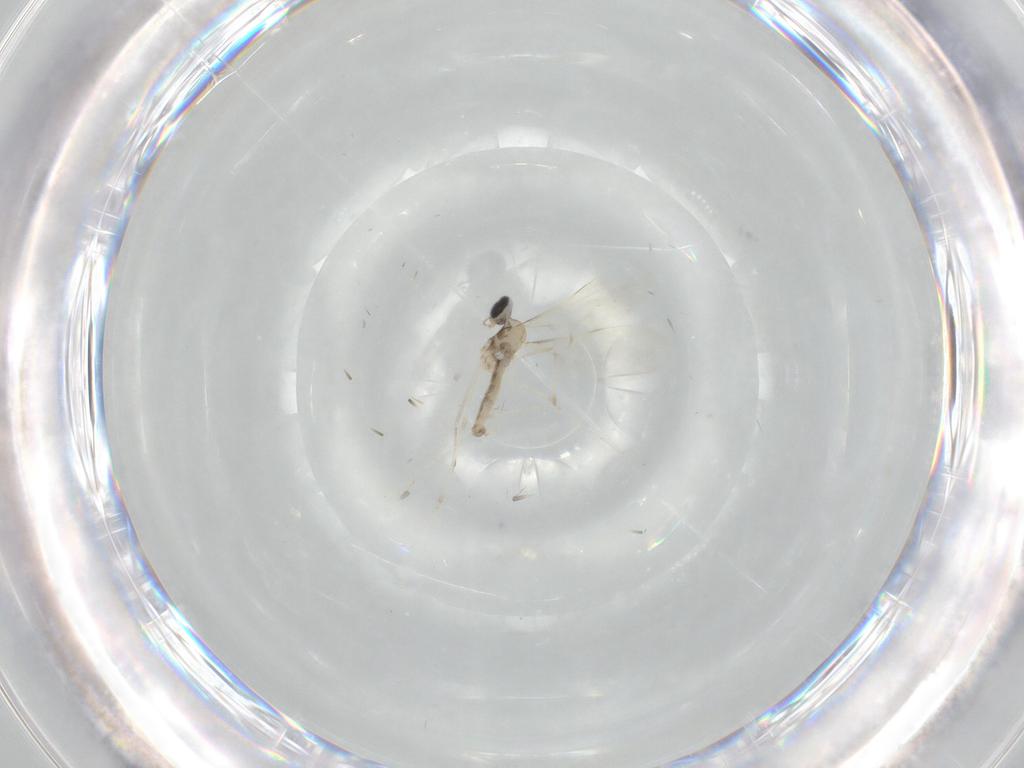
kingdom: Animalia
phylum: Arthropoda
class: Insecta
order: Diptera
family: Cecidomyiidae
